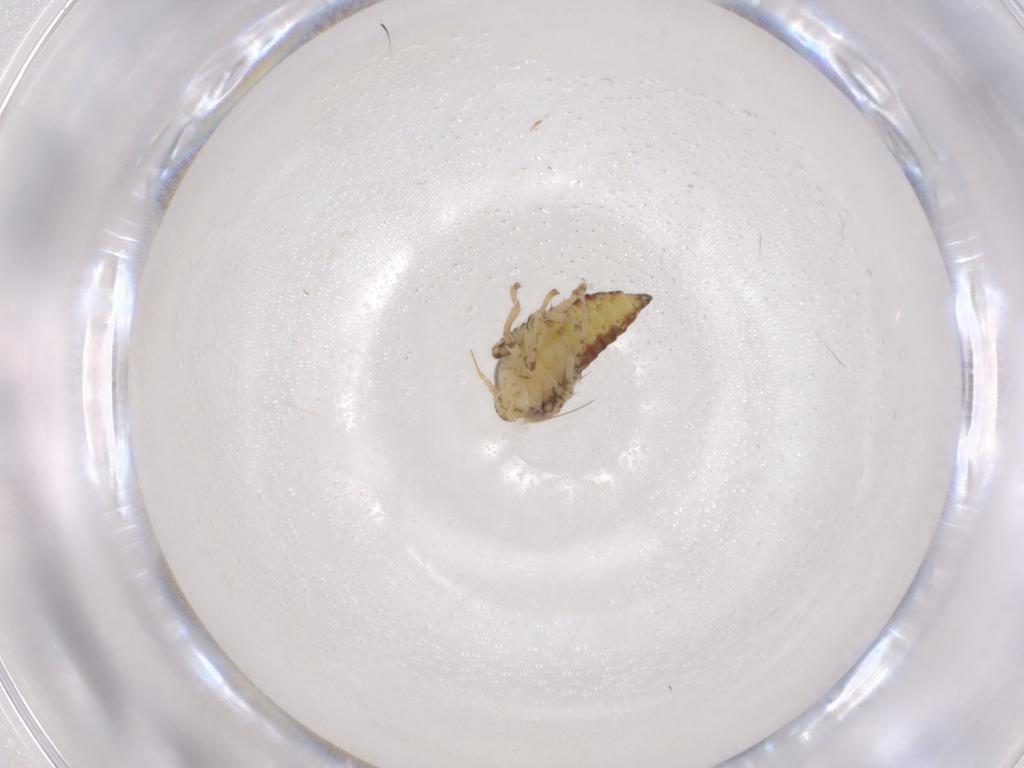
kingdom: Animalia
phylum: Arthropoda
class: Insecta
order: Hemiptera
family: Cicadellidae
